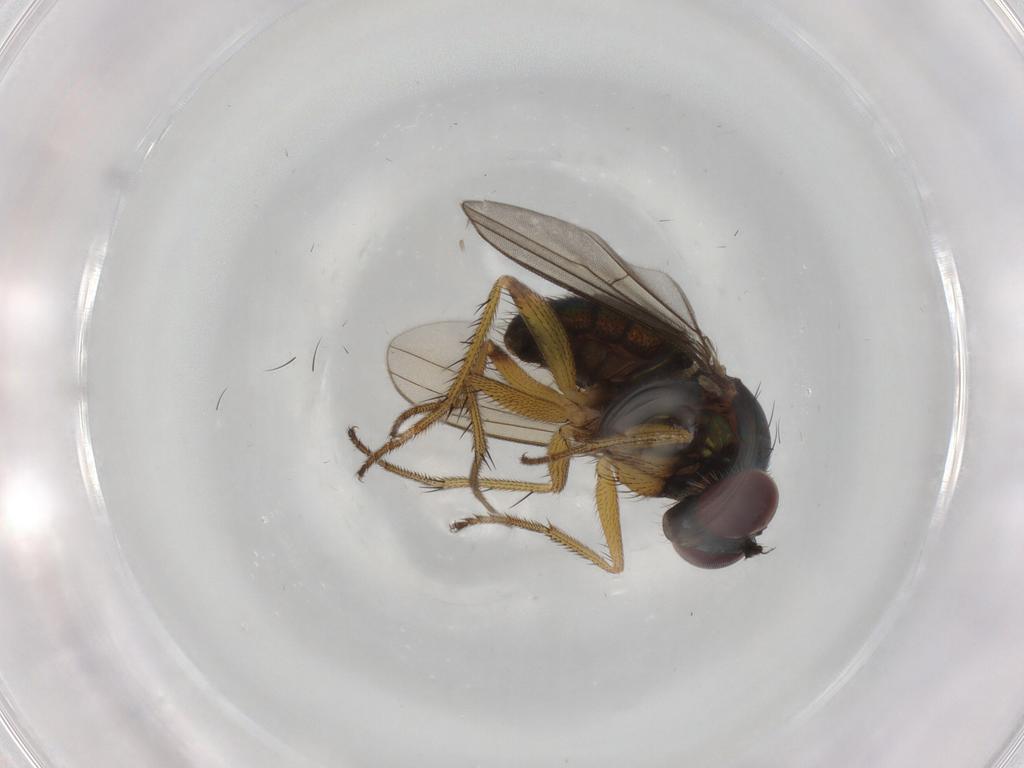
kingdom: Animalia
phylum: Arthropoda
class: Insecta
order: Diptera
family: Dolichopodidae
